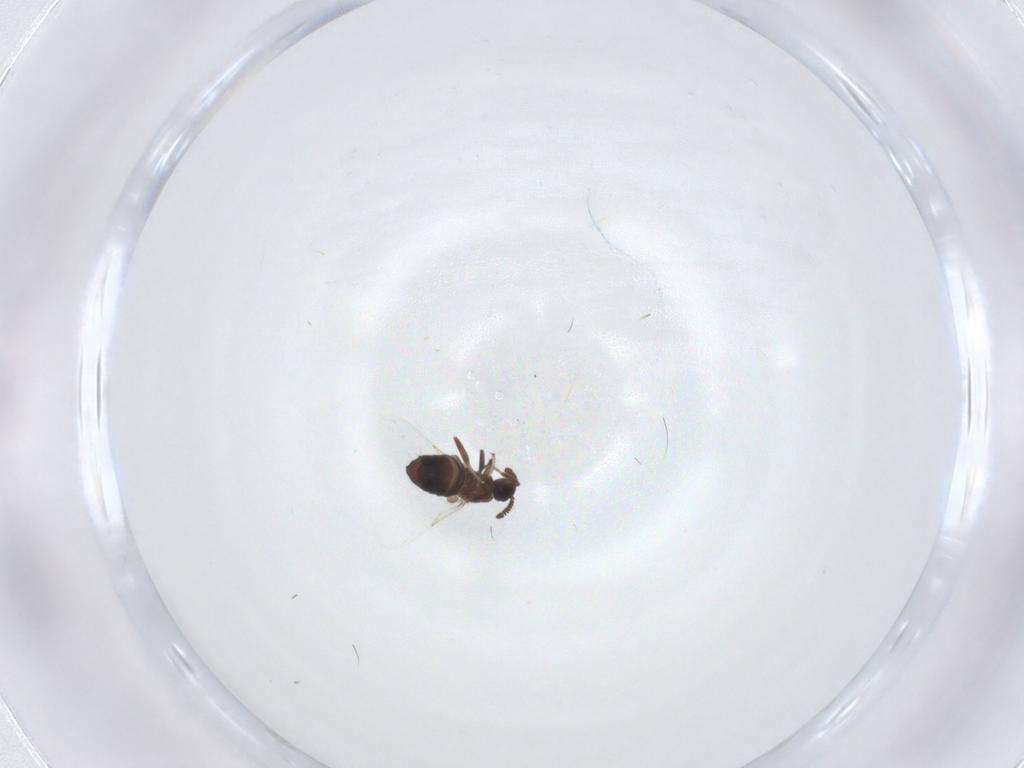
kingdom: Animalia
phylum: Arthropoda
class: Insecta
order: Diptera
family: Scatopsidae
